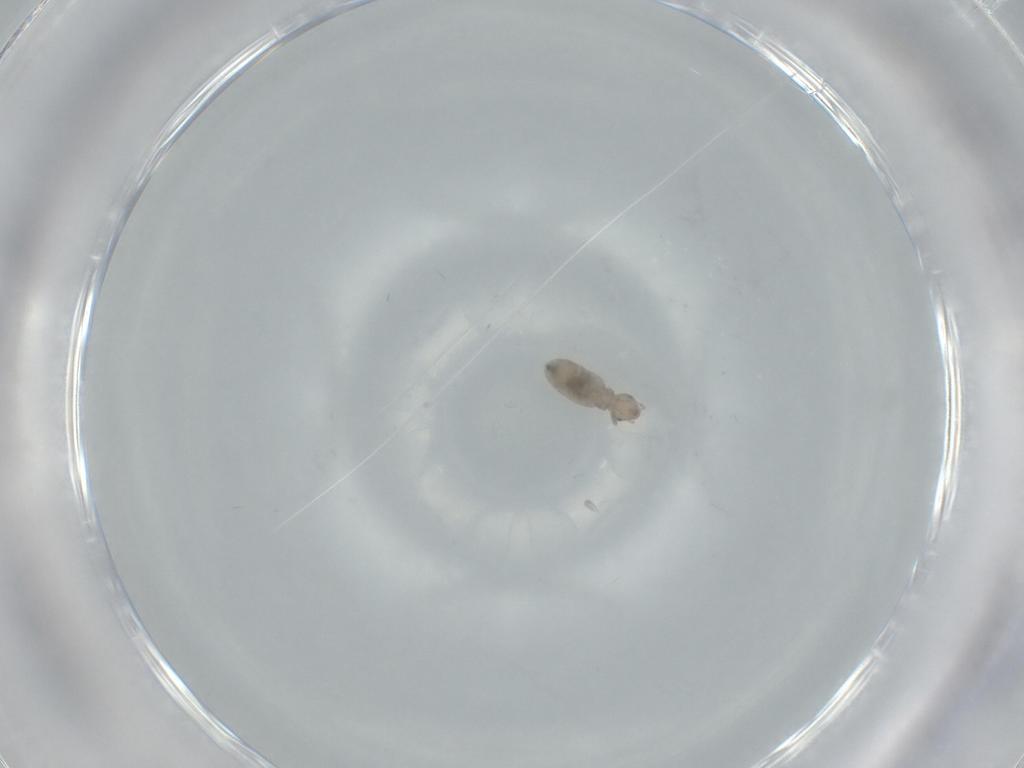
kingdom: Animalia
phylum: Arthropoda
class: Insecta
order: Psocodea
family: Liposcelididae
